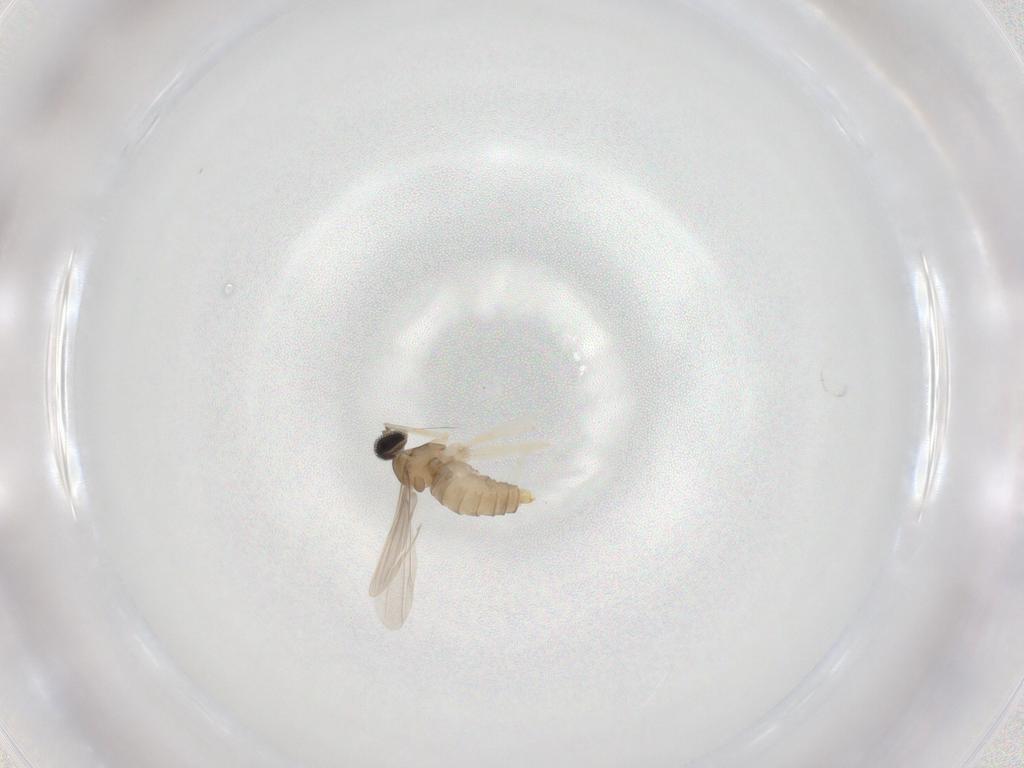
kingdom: Animalia
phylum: Arthropoda
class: Insecta
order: Diptera
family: Cecidomyiidae
